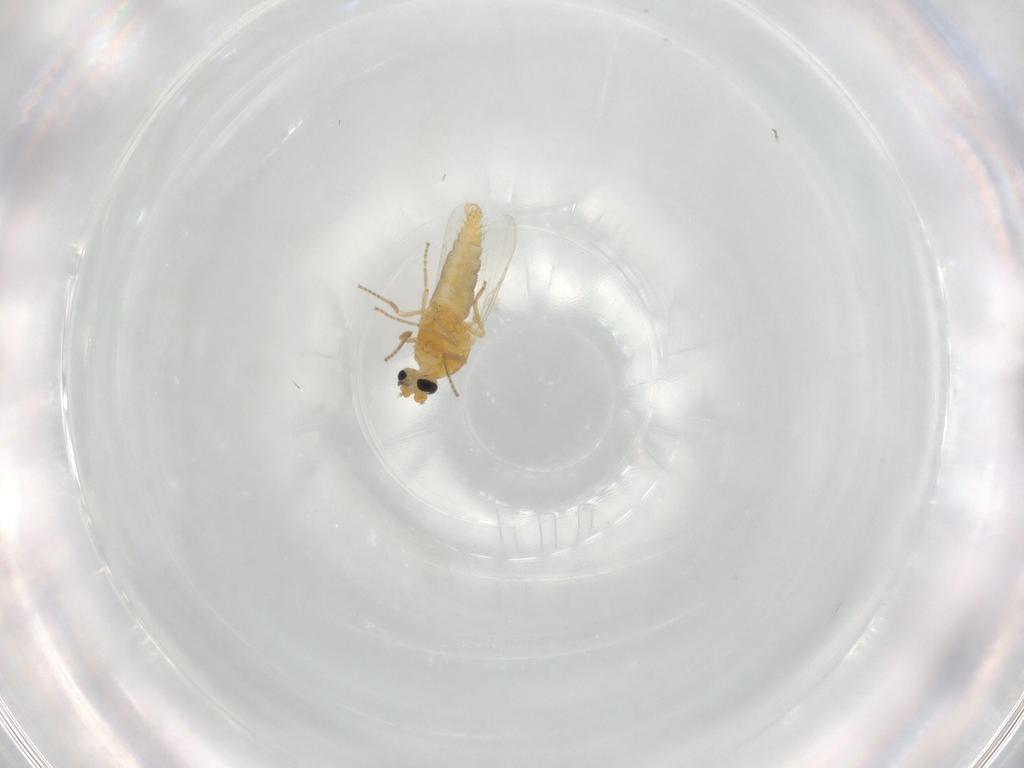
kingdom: Animalia
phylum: Arthropoda
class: Insecta
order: Diptera
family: Ceratopogonidae
